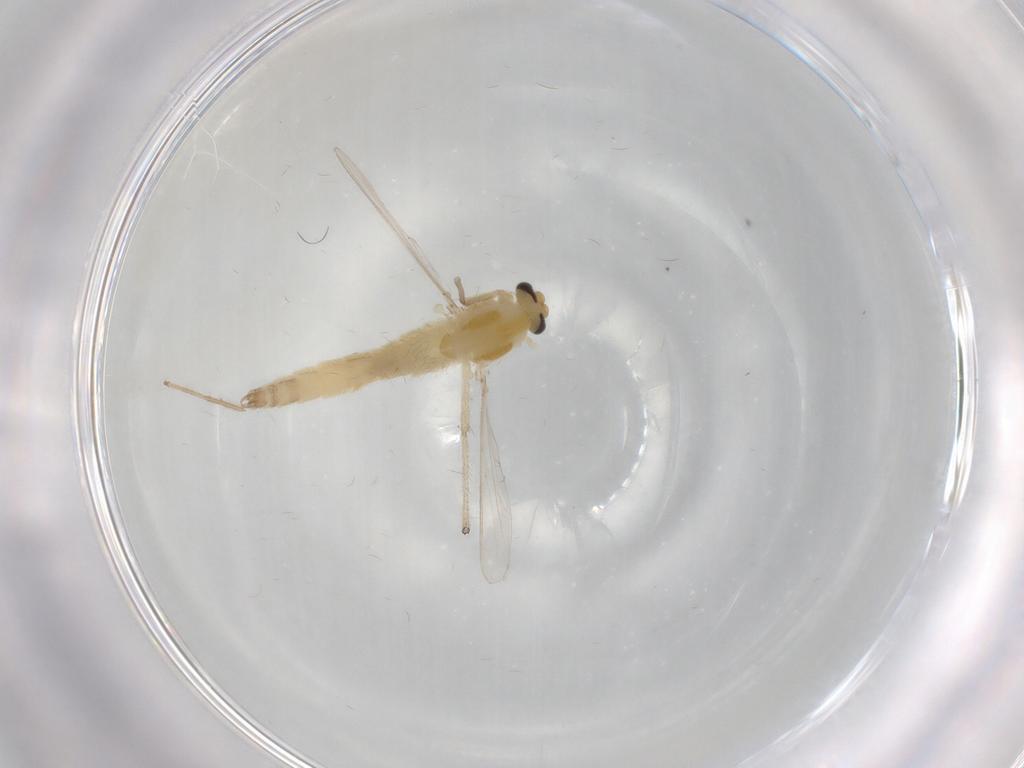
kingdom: Animalia
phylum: Arthropoda
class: Insecta
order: Diptera
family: Chironomidae
